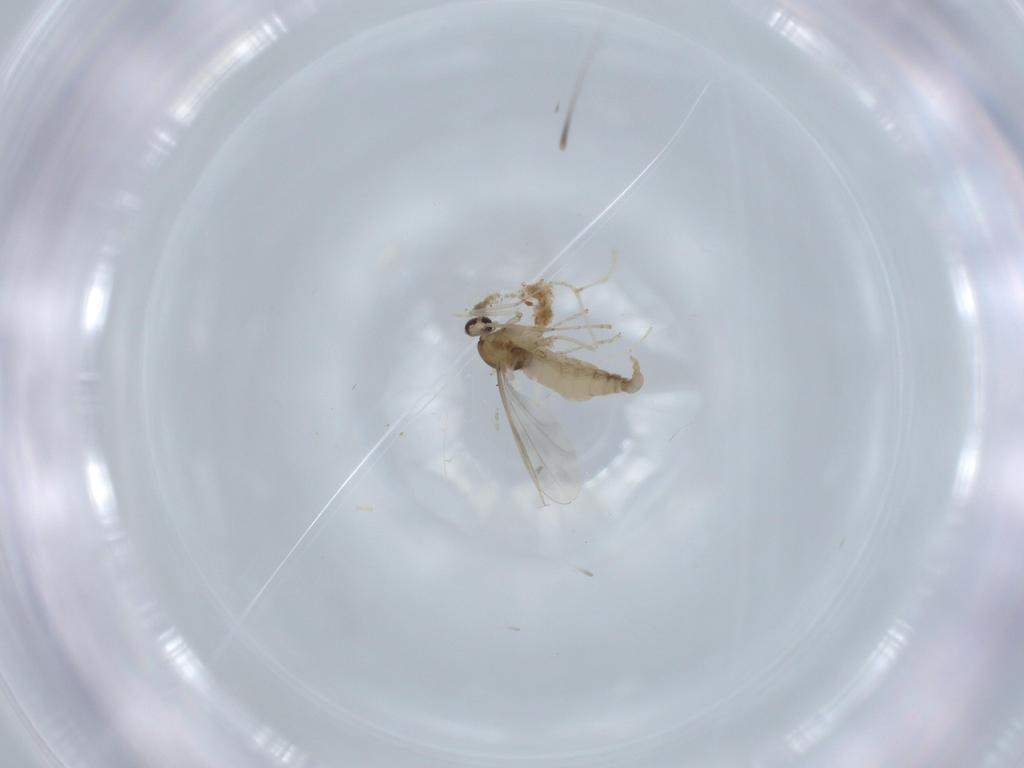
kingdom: Animalia
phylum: Arthropoda
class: Insecta
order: Diptera
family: Cecidomyiidae
